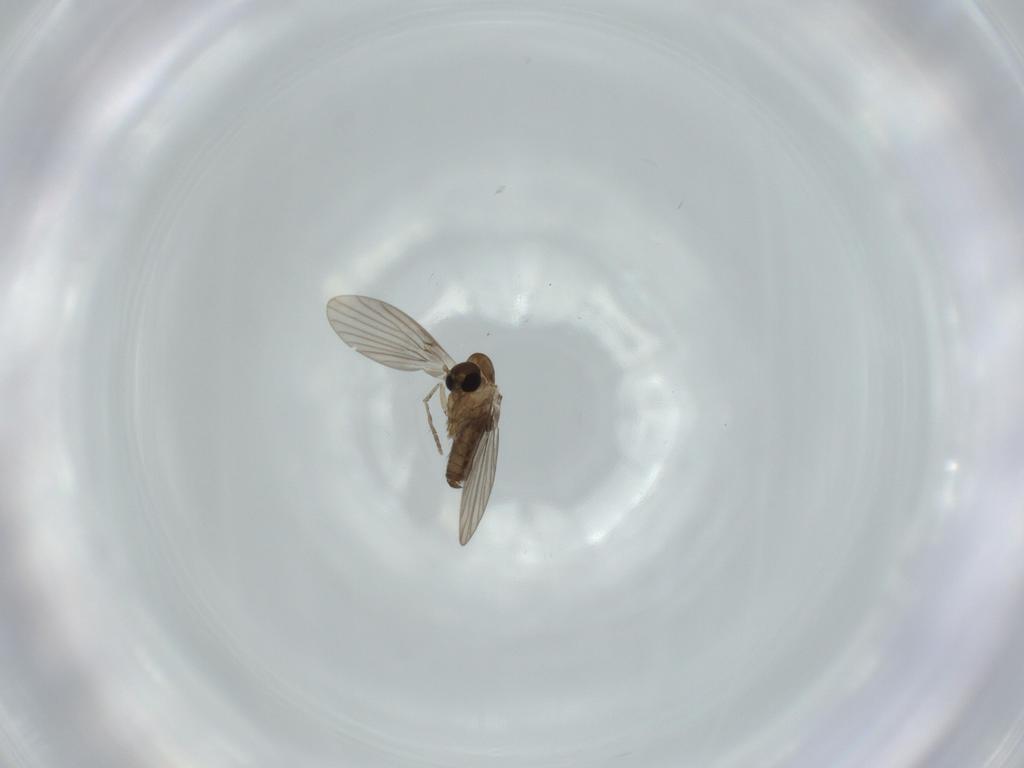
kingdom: Animalia
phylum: Arthropoda
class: Insecta
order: Diptera
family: Psychodidae
